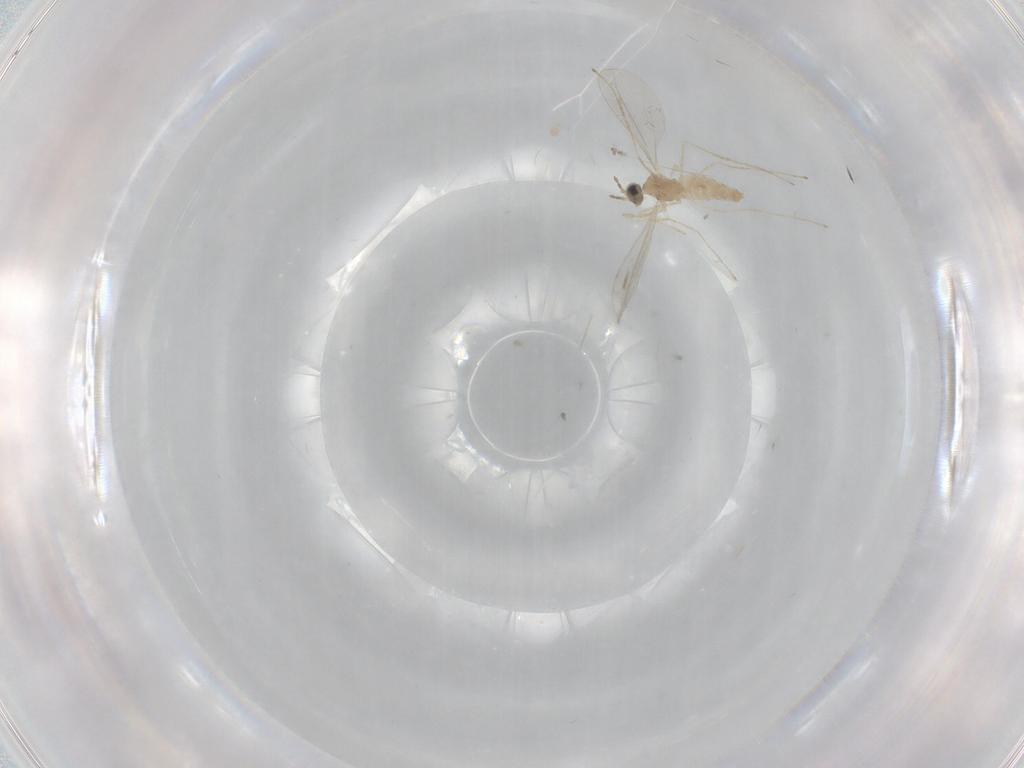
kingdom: Animalia
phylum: Arthropoda
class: Insecta
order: Diptera
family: Cecidomyiidae
